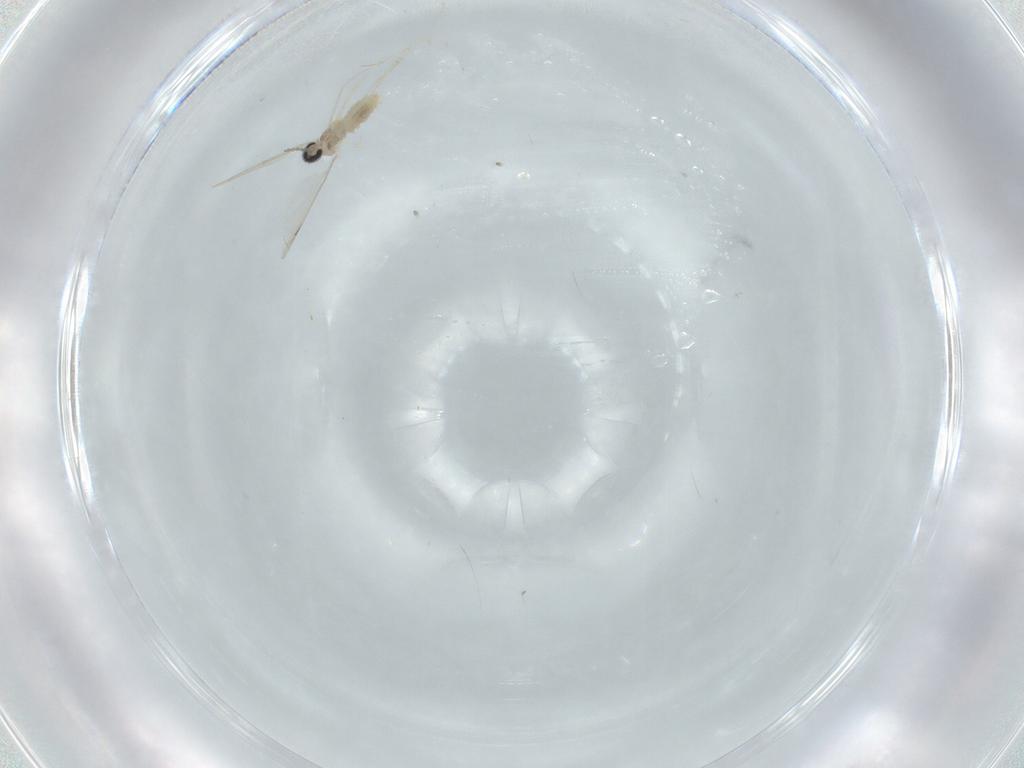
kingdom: Animalia
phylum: Arthropoda
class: Insecta
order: Diptera
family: Cecidomyiidae
